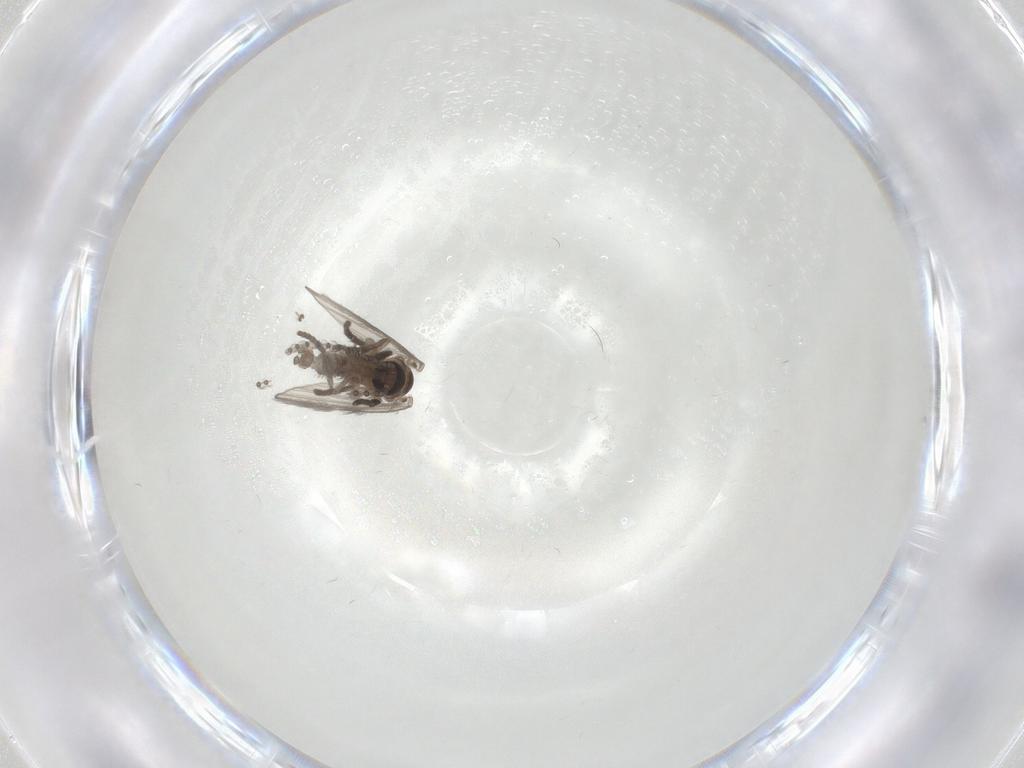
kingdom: Animalia
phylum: Arthropoda
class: Insecta
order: Diptera
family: Psychodidae
